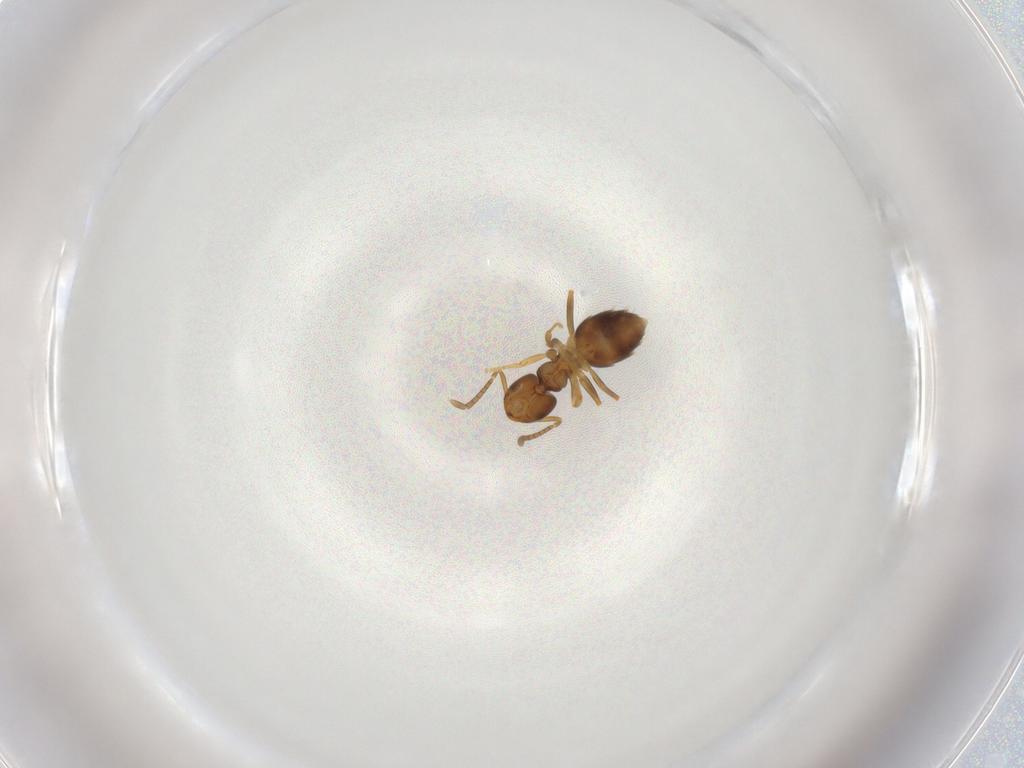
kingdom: Animalia
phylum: Arthropoda
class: Insecta
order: Hymenoptera
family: Formicidae
